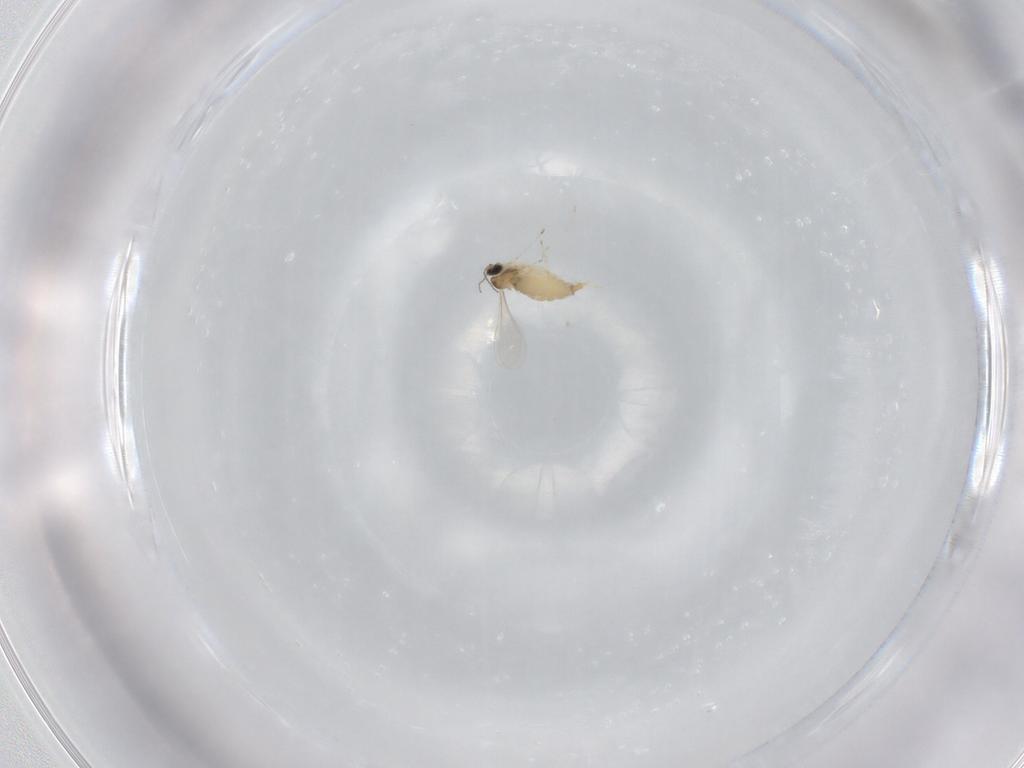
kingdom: Animalia
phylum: Arthropoda
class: Insecta
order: Diptera
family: Cecidomyiidae
